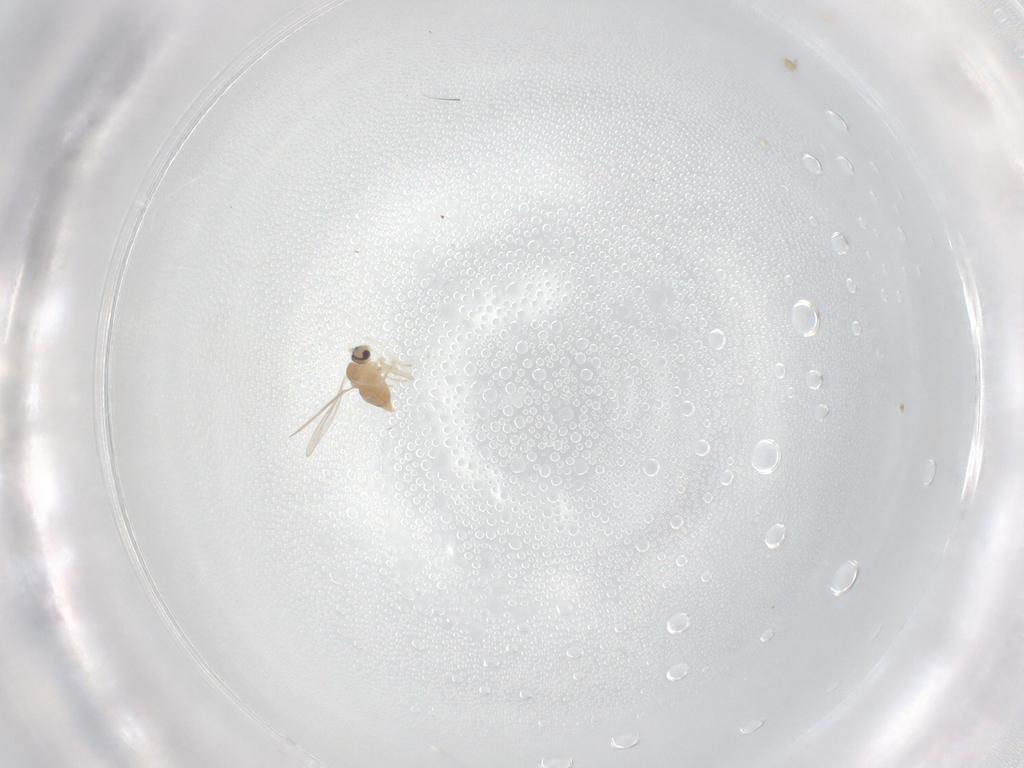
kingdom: Animalia
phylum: Arthropoda
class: Insecta
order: Diptera
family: Cecidomyiidae
